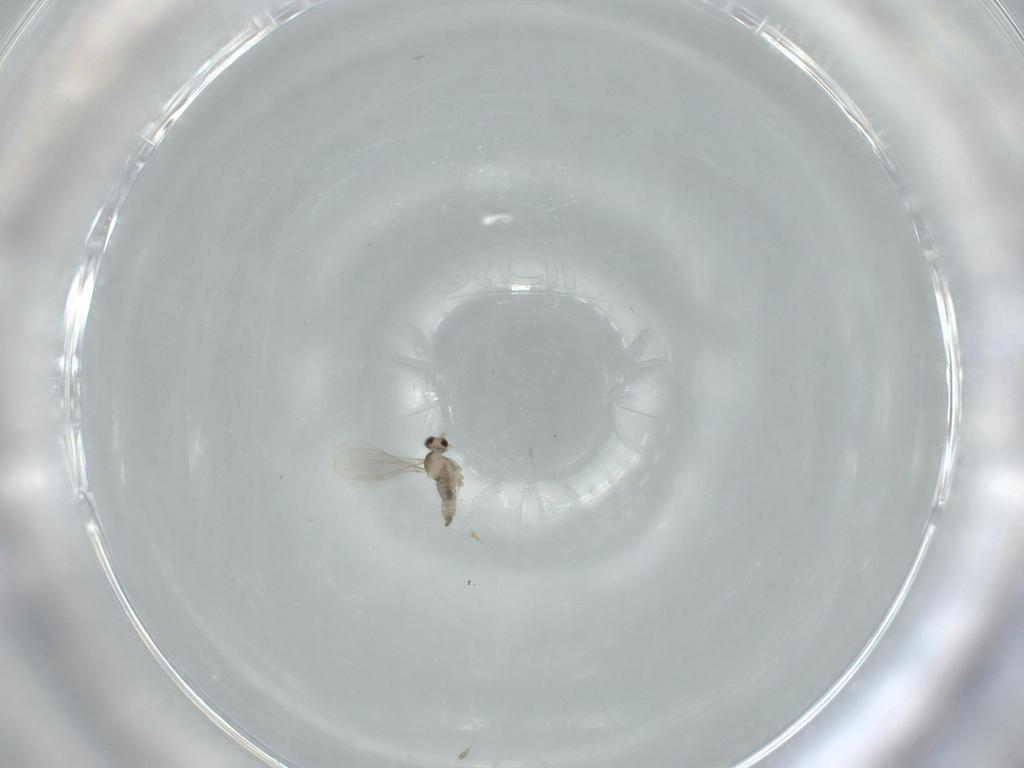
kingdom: Animalia
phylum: Arthropoda
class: Insecta
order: Diptera
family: Cecidomyiidae
